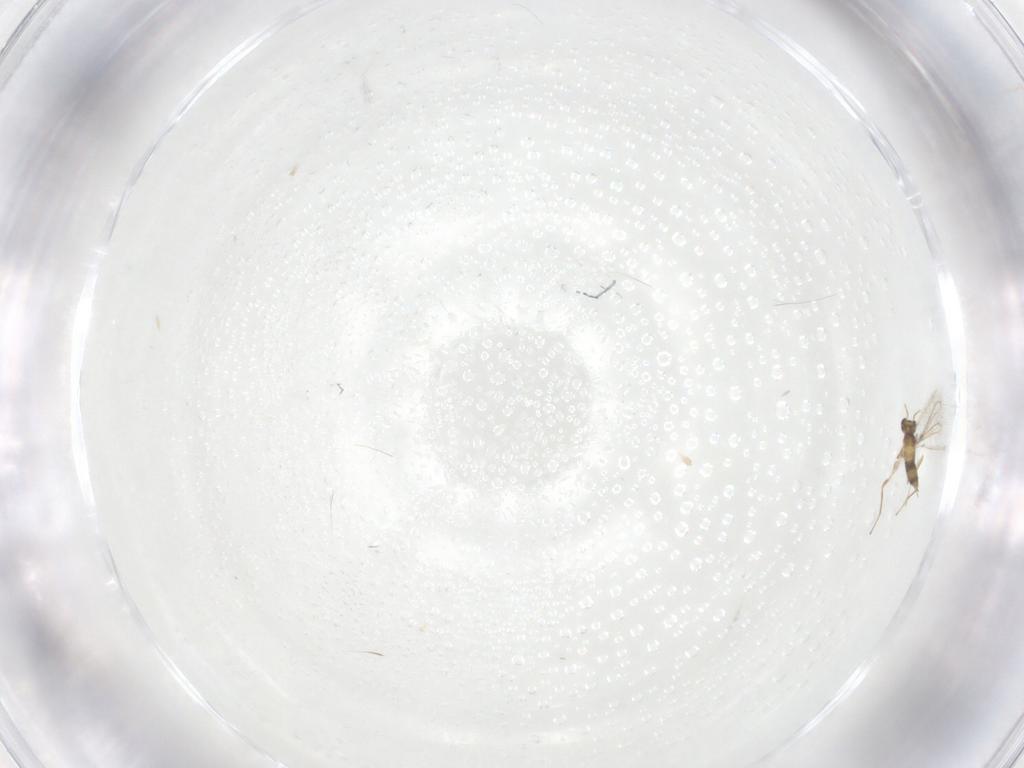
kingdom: Animalia
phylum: Arthropoda
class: Insecta
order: Hymenoptera
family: Mymaridae
